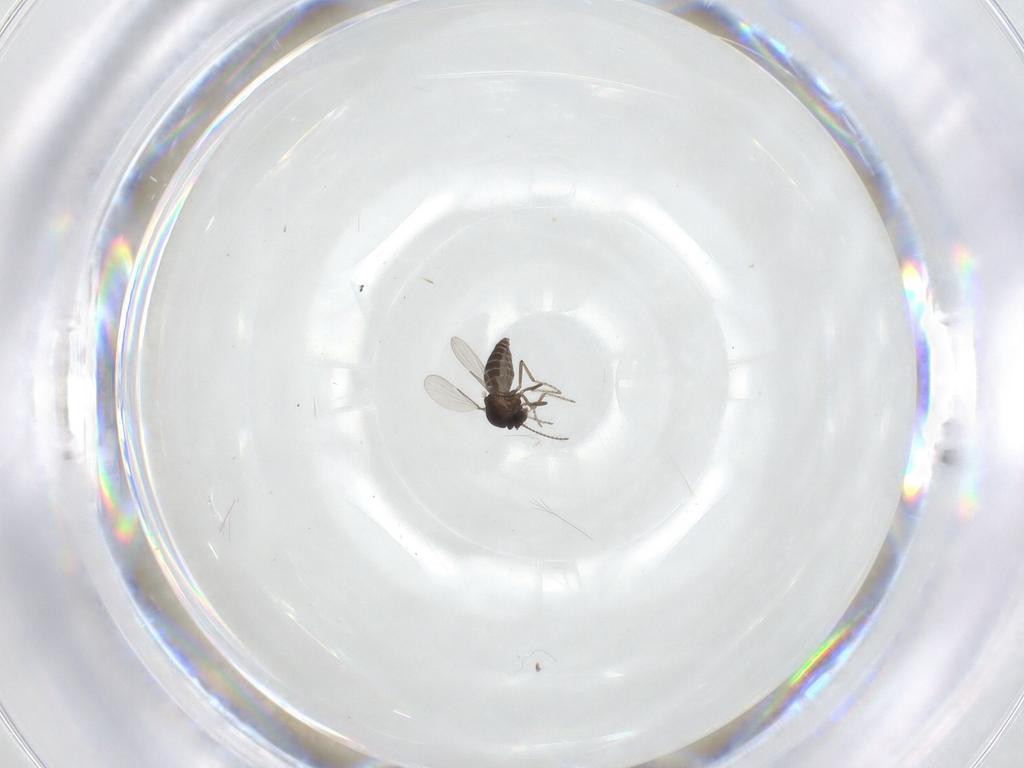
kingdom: Animalia
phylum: Arthropoda
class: Insecta
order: Diptera
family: Ceratopogonidae
